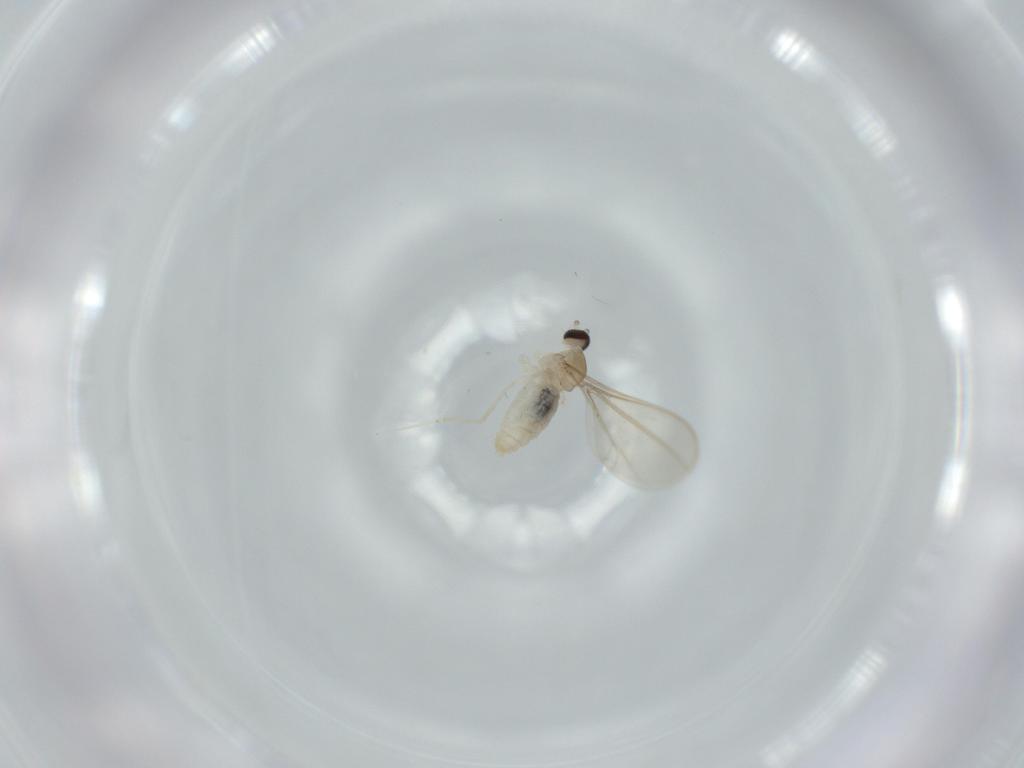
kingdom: Animalia
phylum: Arthropoda
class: Insecta
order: Diptera
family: Cecidomyiidae
